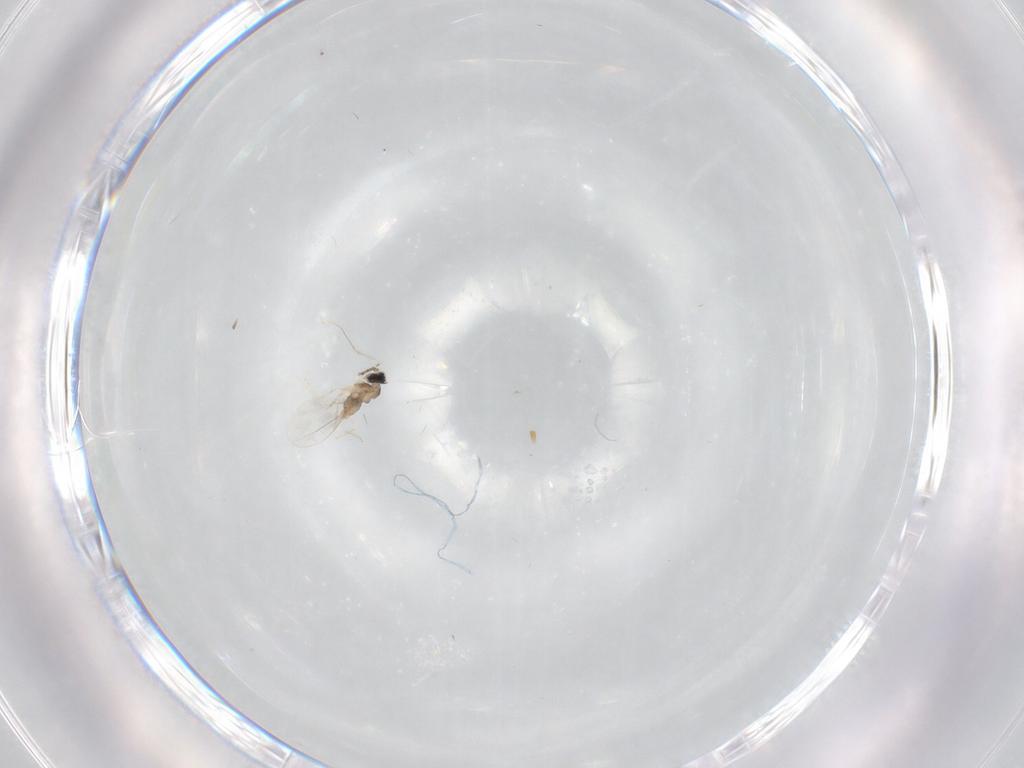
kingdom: Animalia
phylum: Arthropoda
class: Insecta
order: Diptera
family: Cecidomyiidae
